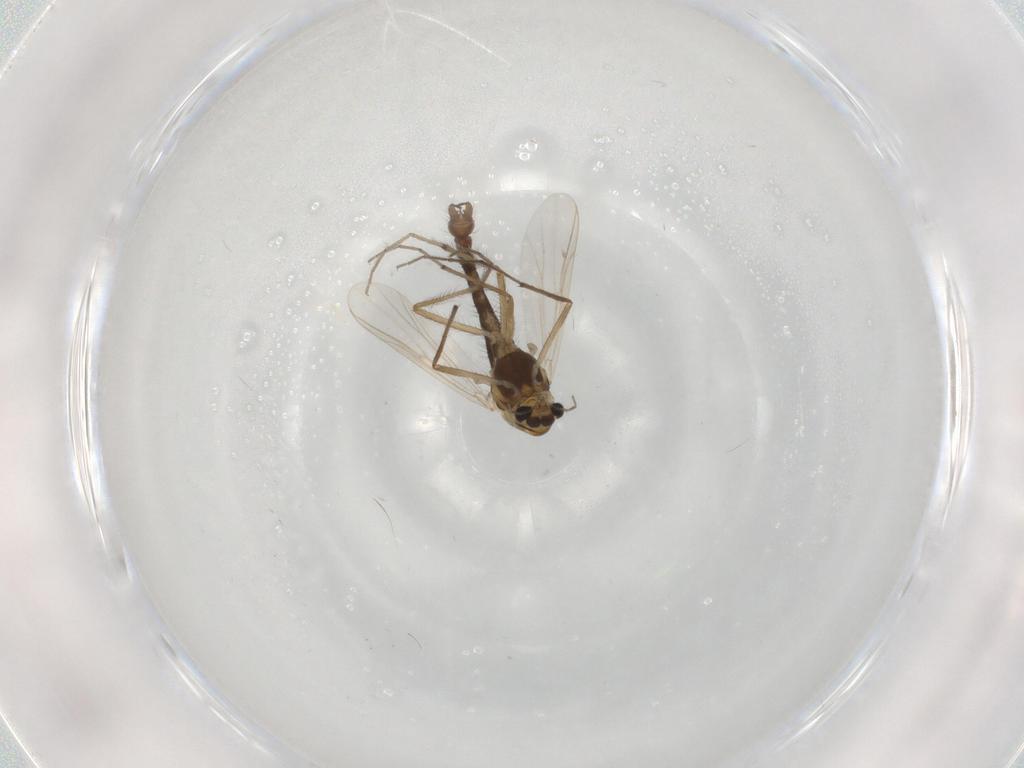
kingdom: Animalia
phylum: Arthropoda
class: Insecta
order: Diptera
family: Chironomidae
